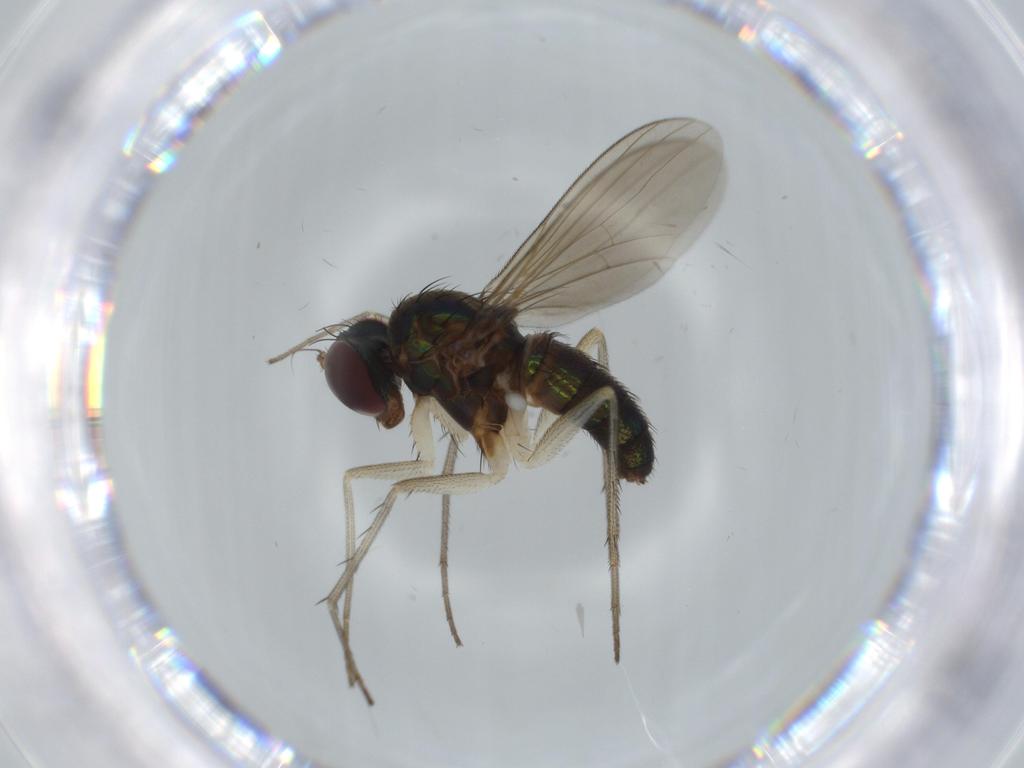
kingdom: Animalia
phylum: Arthropoda
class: Insecta
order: Diptera
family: Dolichopodidae
